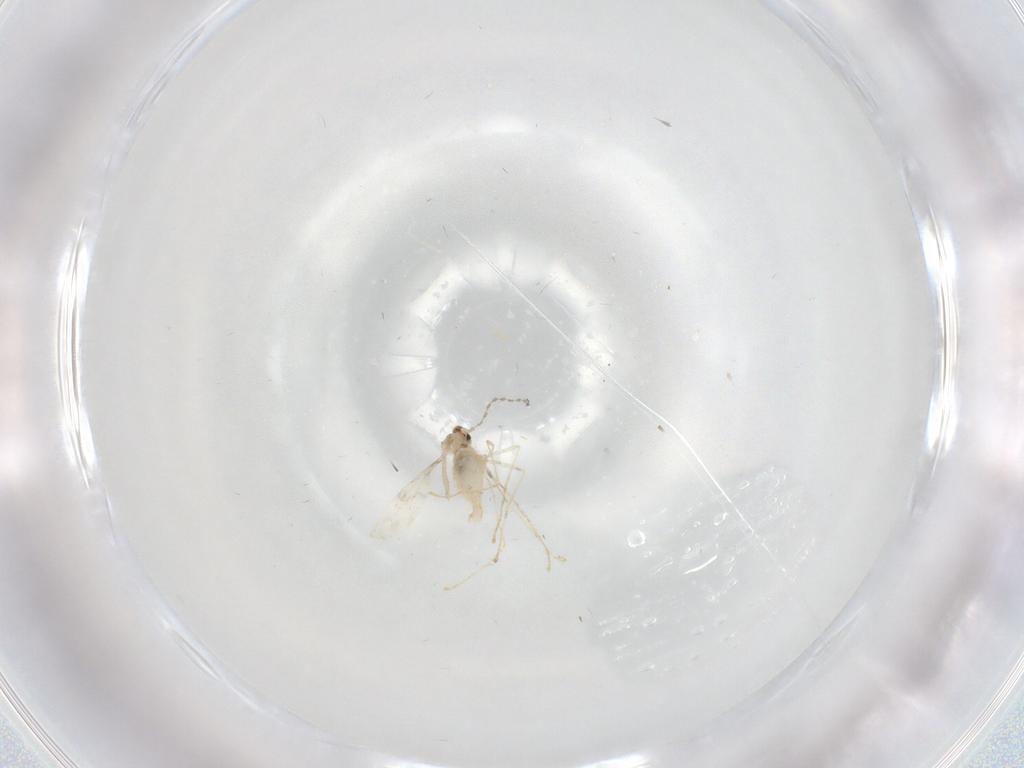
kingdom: Animalia
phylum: Arthropoda
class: Insecta
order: Diptera
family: Cecidomyiidae
